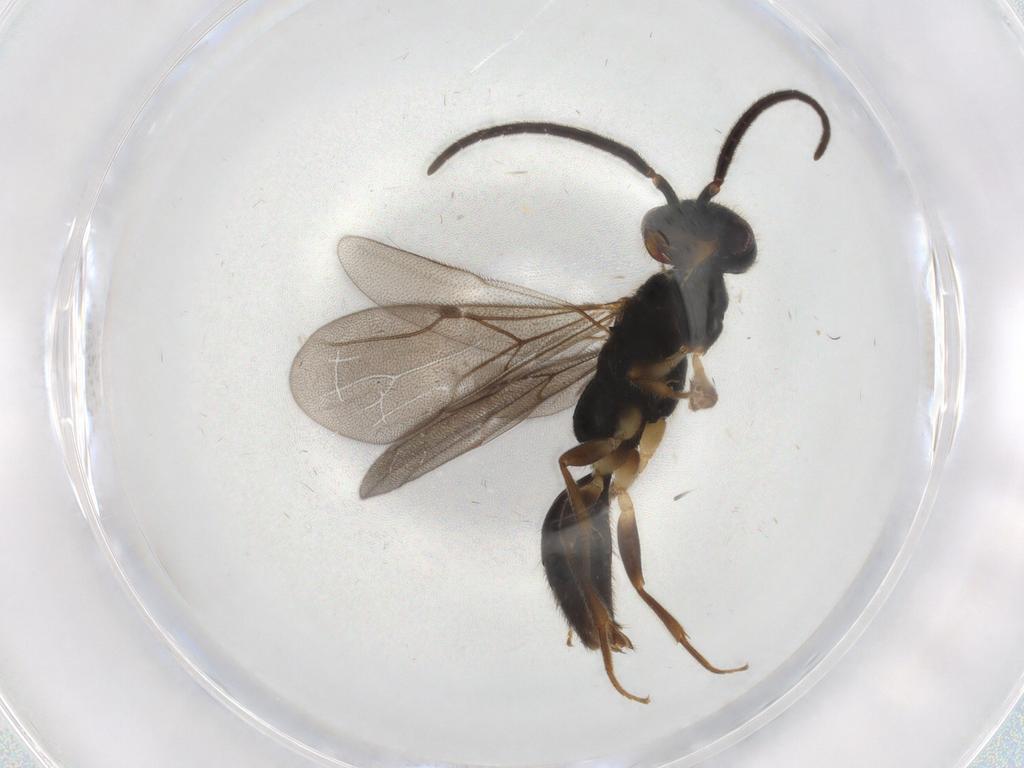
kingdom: Animalia
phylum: Arthropoda
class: Insecta
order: Hymenoptera
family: Bethylidae
